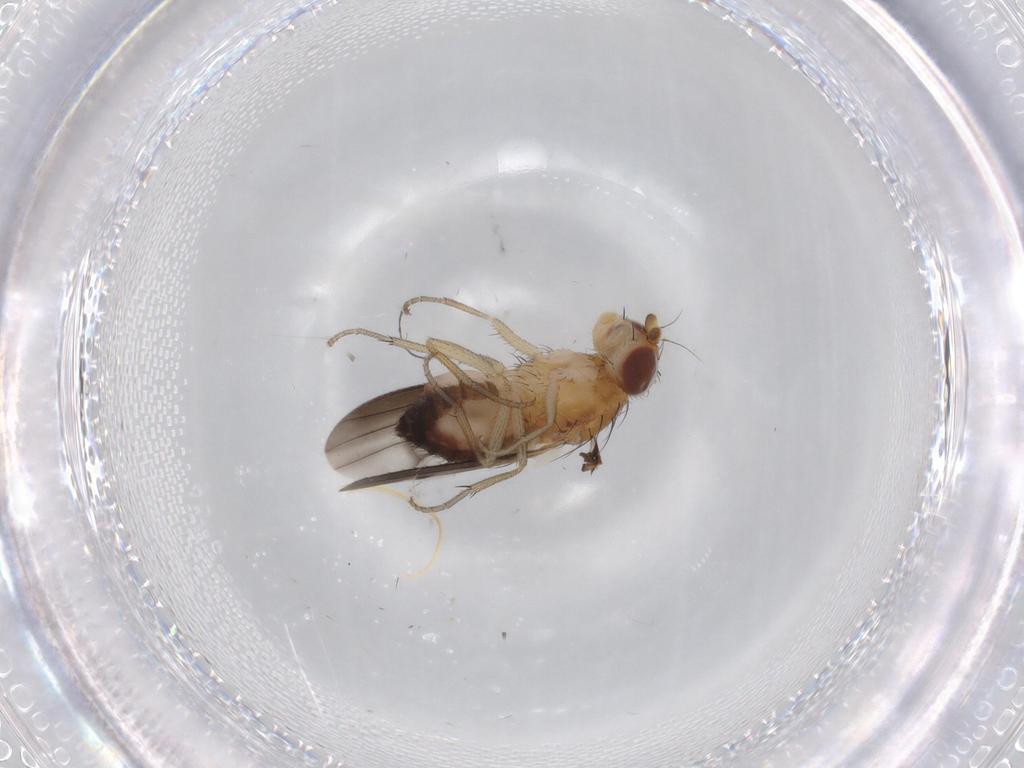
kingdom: Animalia
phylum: Arthropoda
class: Insecta
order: Diptera
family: Heleomyzidae
